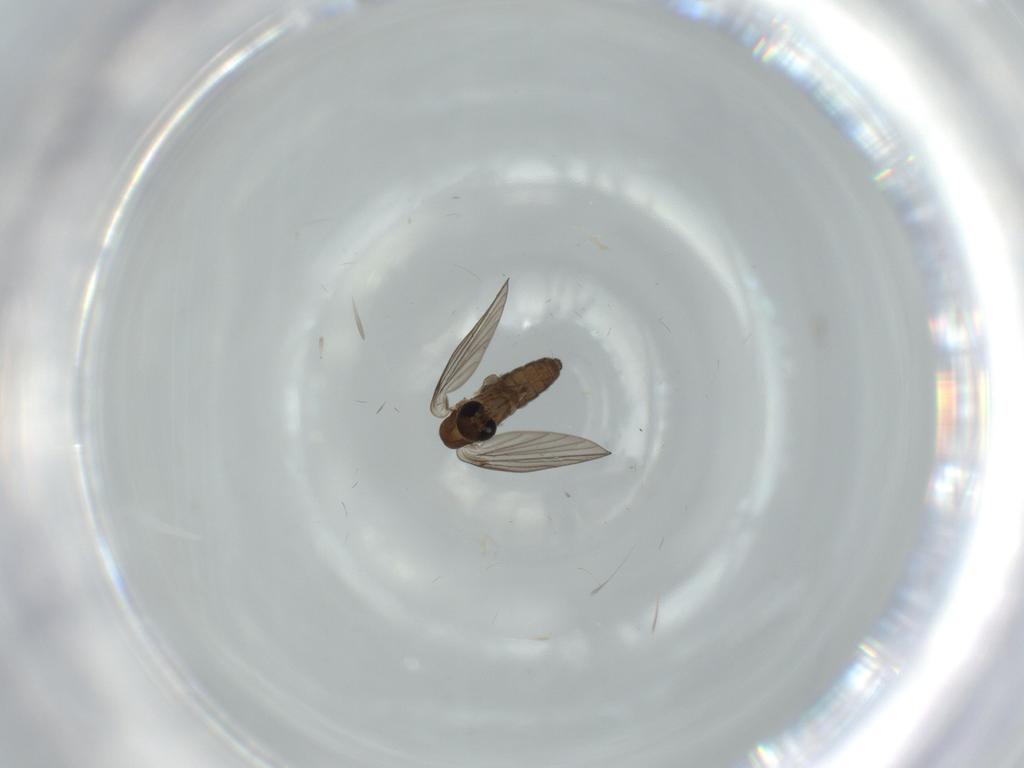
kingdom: Animalia
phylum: Arthropoda
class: Insecta
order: Diptera
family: Psychodidae
